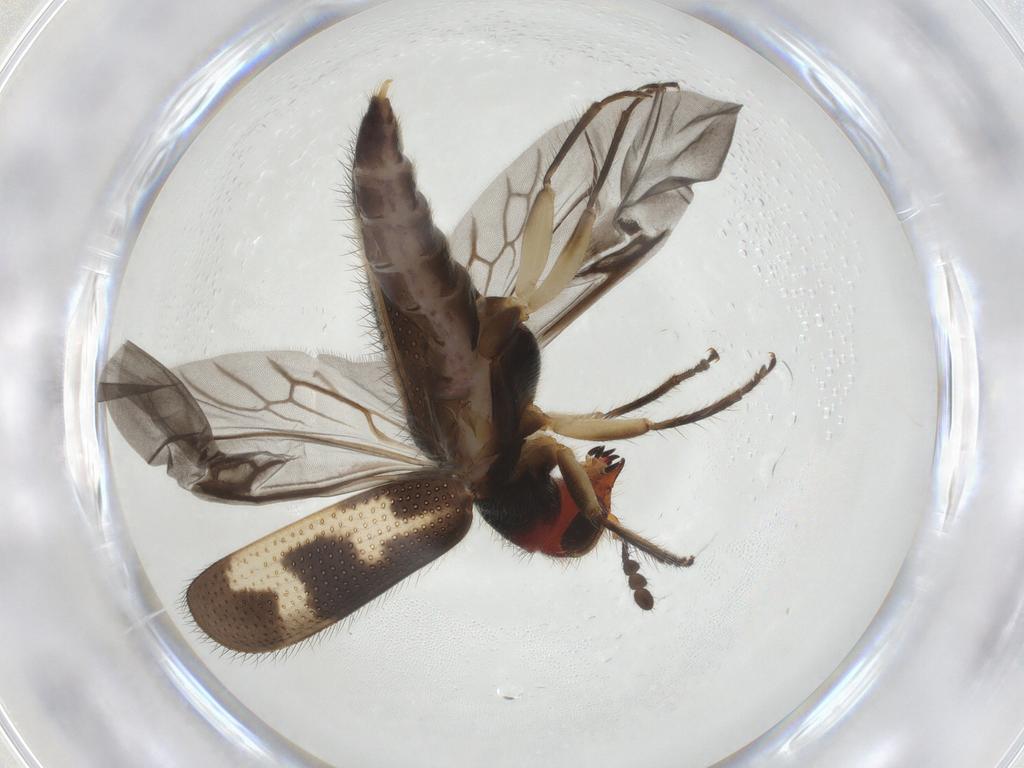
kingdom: Animalia
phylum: Arthropoda
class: Insecta
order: Coleoptera
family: Cleridae
